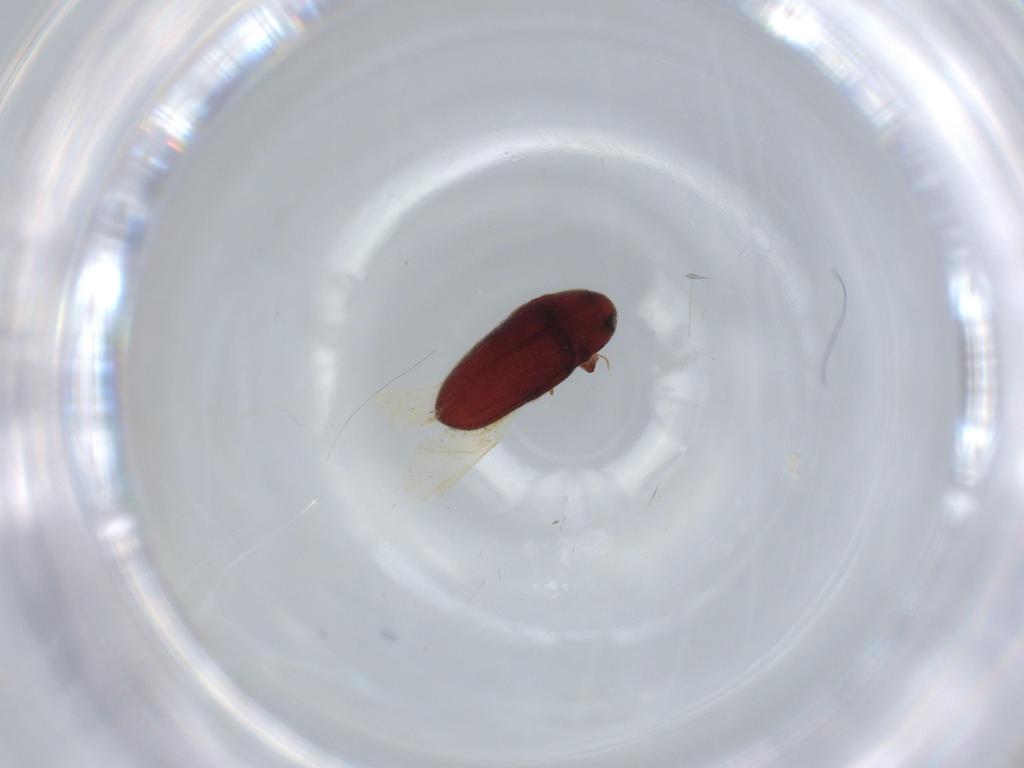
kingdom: Animalia
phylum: Arthropoda
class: Insecta
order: Coleoptera
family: Throscidae
